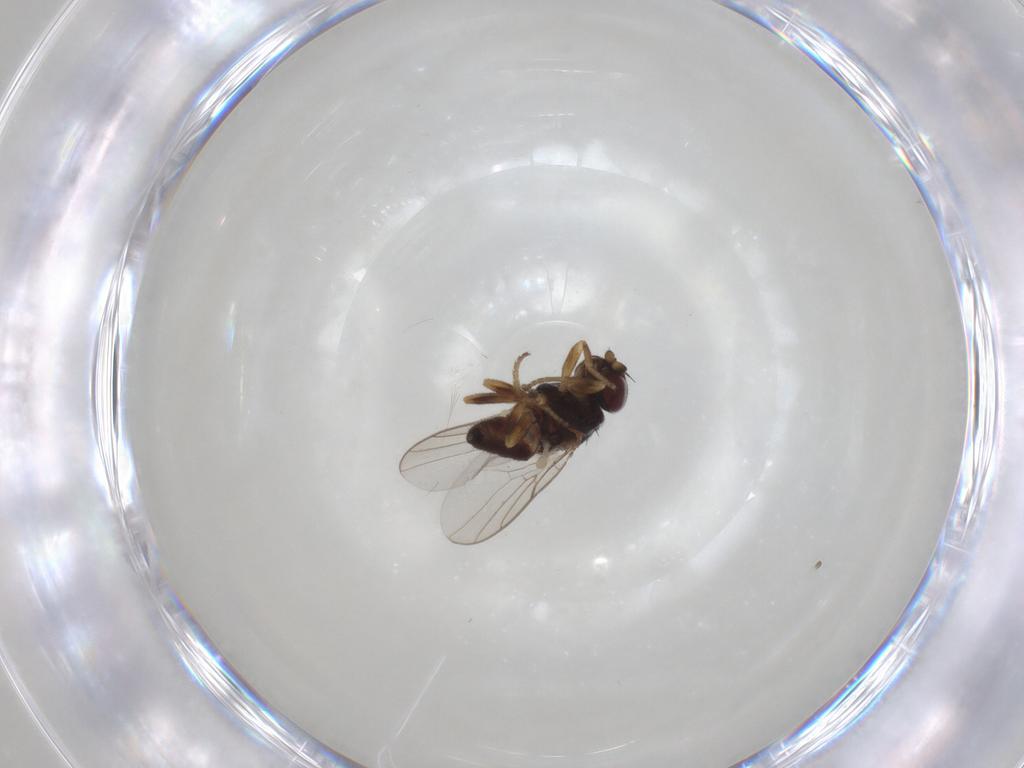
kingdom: Animalia
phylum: Arthropoda
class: Insecta
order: Diptera
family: Chloropidae
